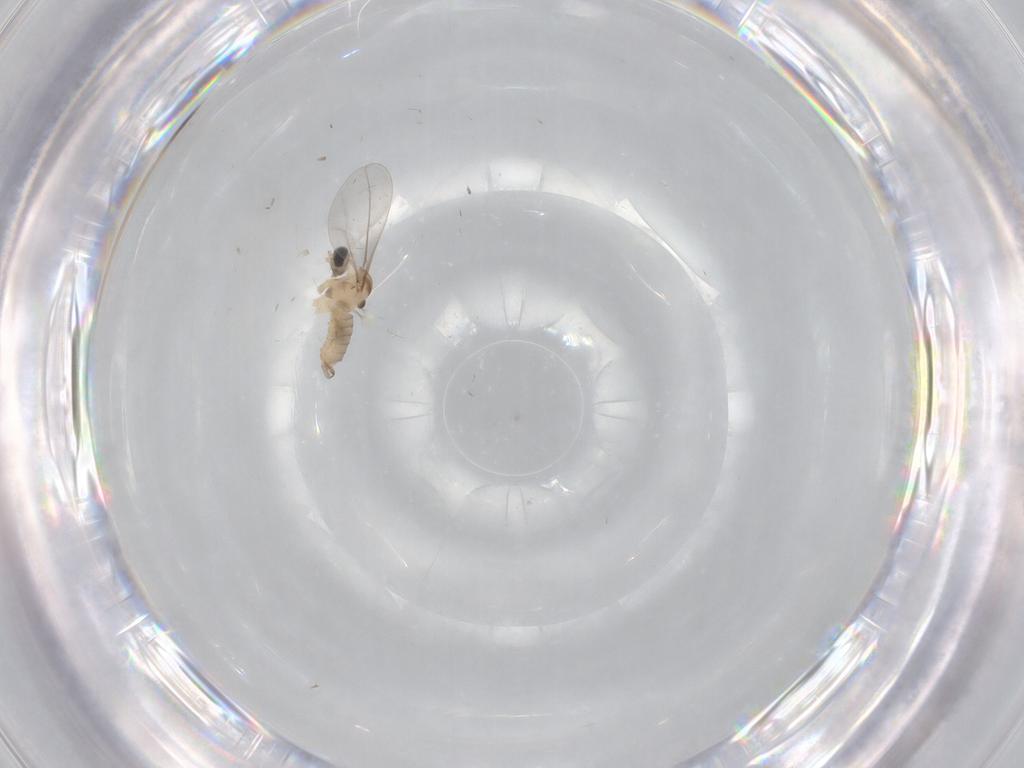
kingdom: Animalia
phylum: Arthropoda
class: Insecta
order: Diptera
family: Cecidomyiidae
